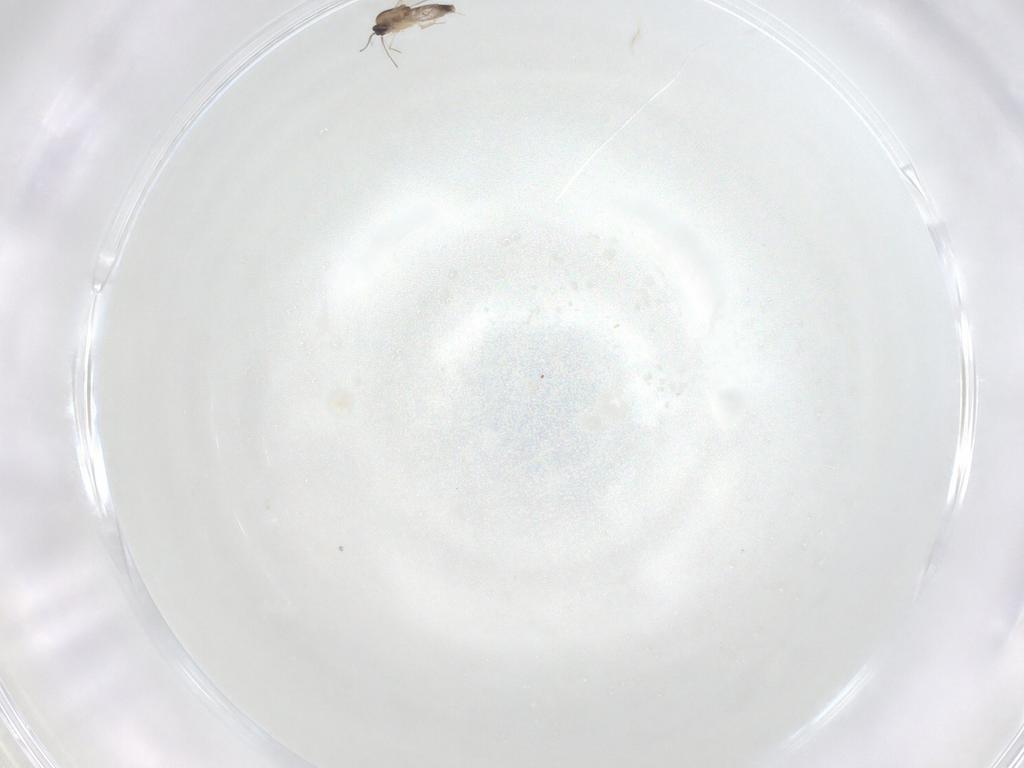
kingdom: Animalia
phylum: Arthropoda
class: Insecta
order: Diptera
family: Ceratopogonidae
